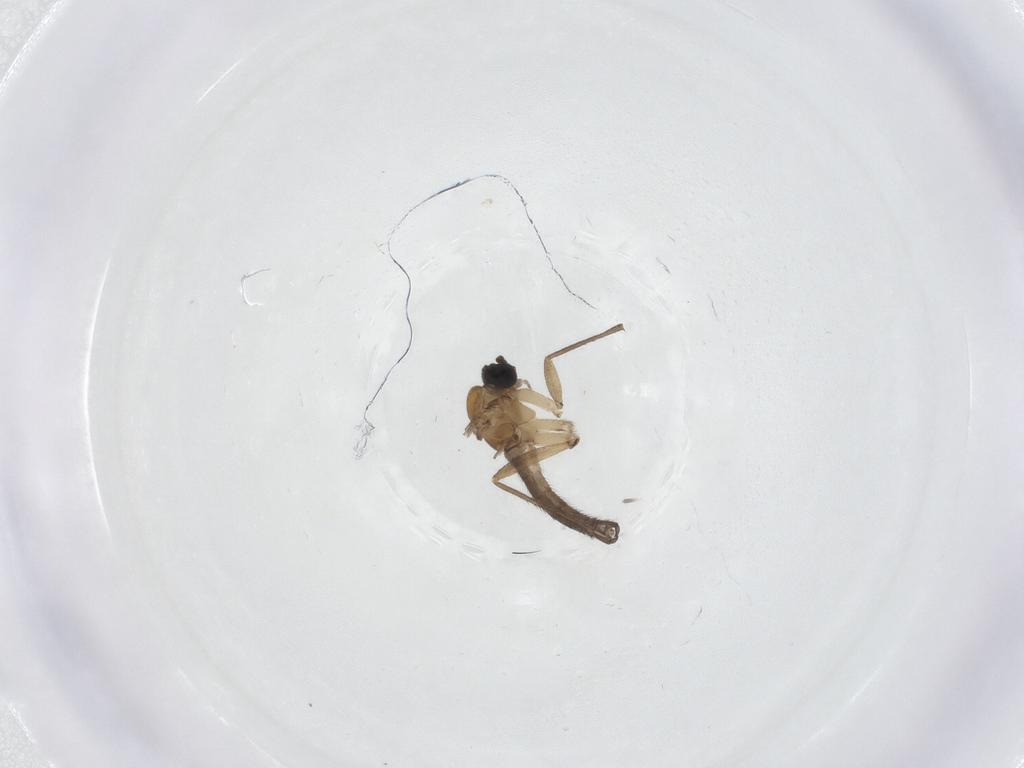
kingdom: Animalia
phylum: Arthropoda
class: Insecta
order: Diptera
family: Sciaridae
